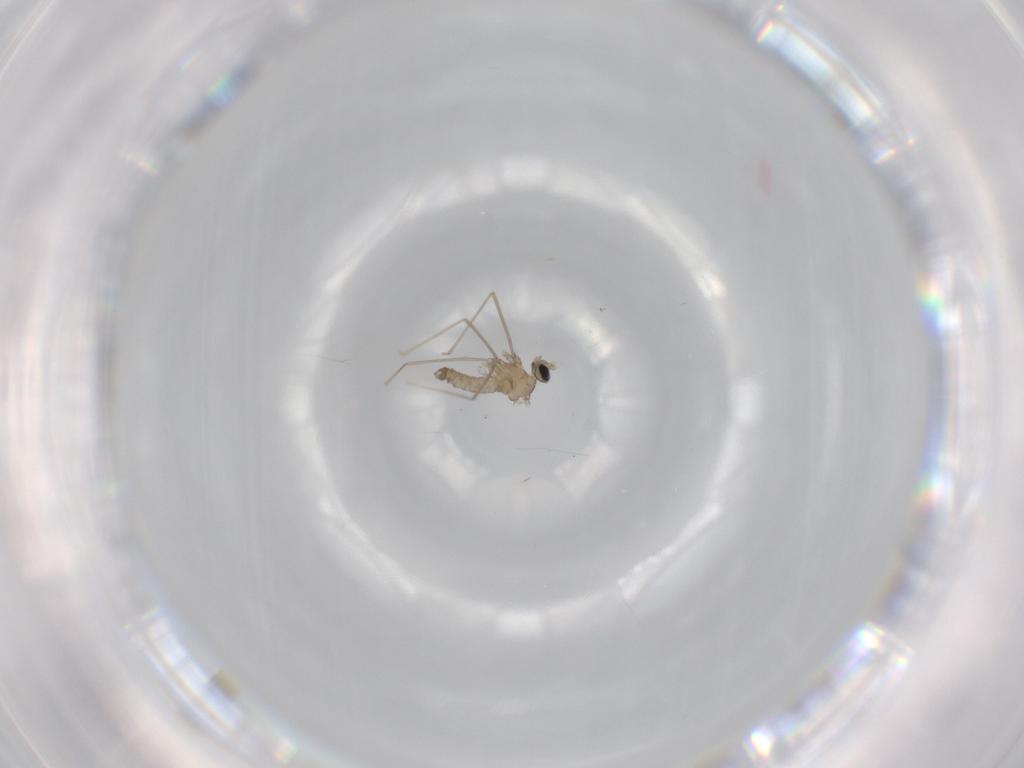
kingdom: Animalia
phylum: Arthropoda
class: Insecta
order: Diptera
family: Cecidomyiidae
